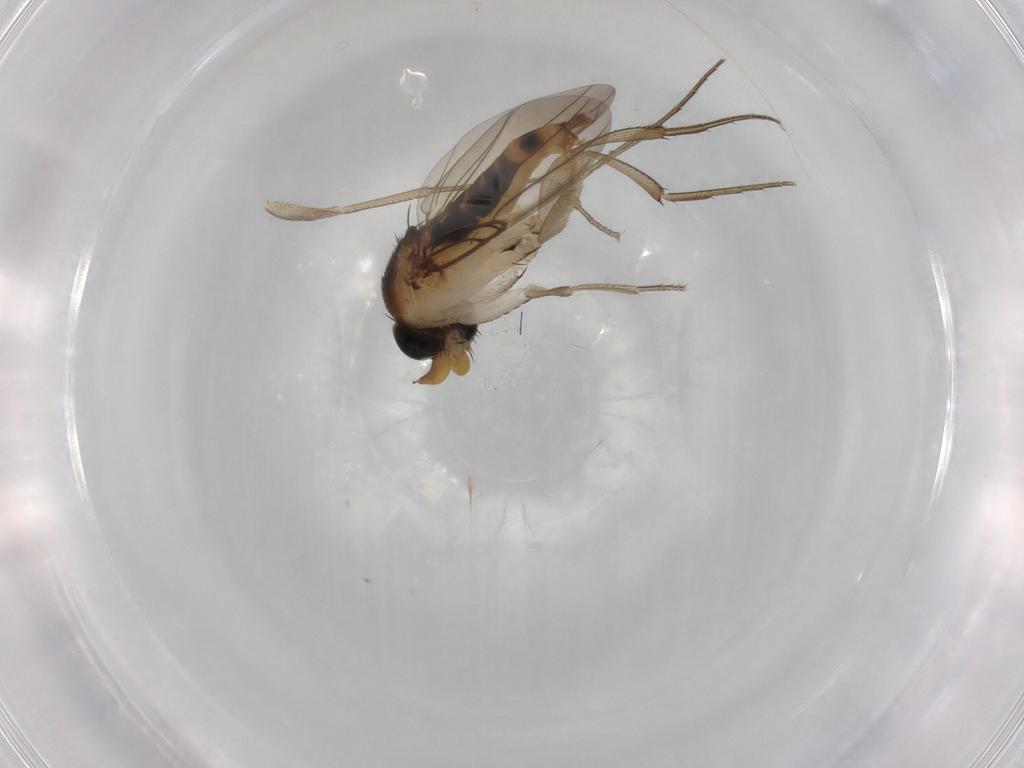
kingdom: Animalia
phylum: Arthropoda
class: Insecta
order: Diptera
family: Phoridae
